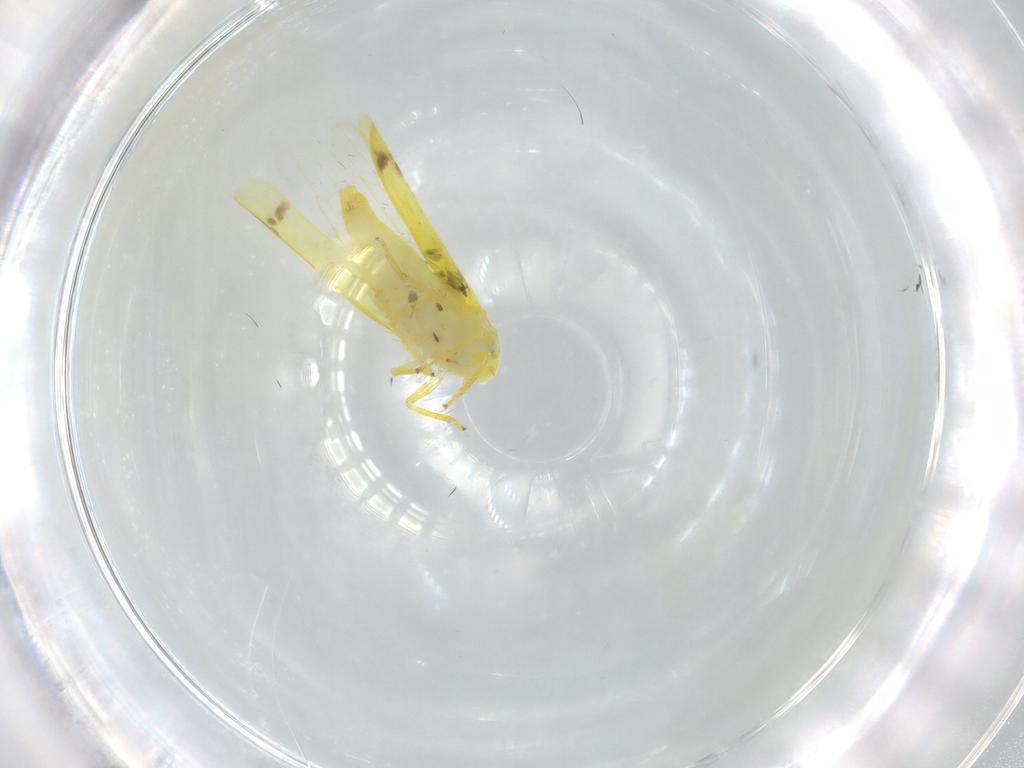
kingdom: Animalia
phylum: Arthropoda
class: Insecta
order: Hemiptera
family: Cicadellidae
